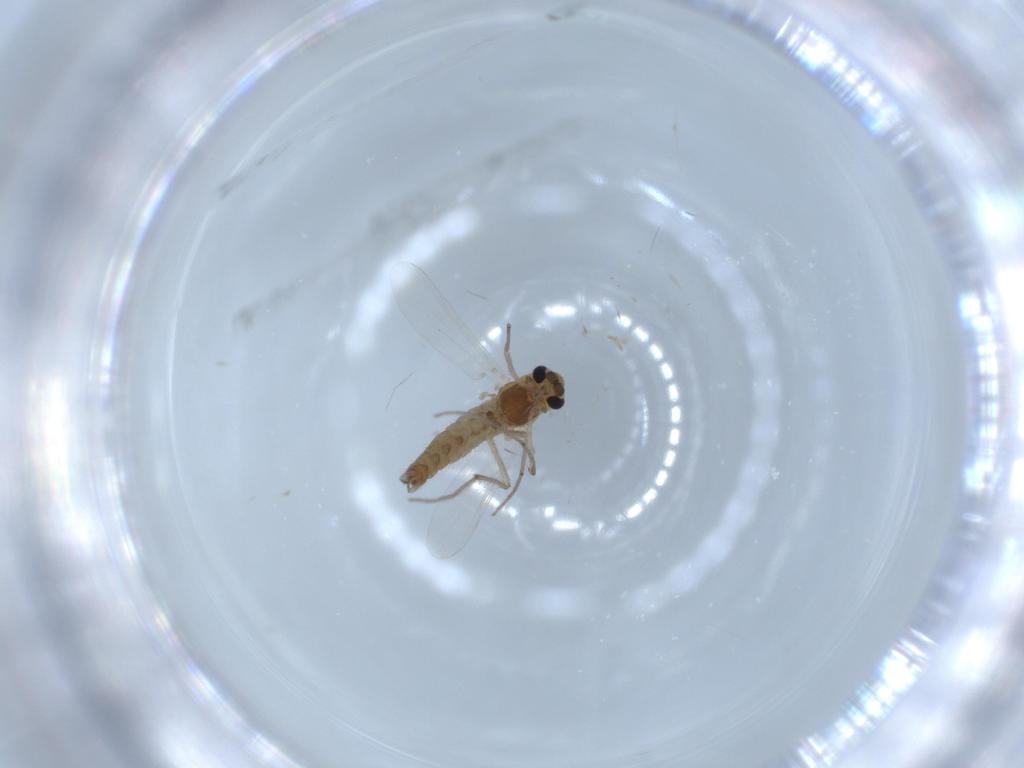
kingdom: Animalia
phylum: Arthropoda
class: Insecta
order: Diptera
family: Chironomidae
